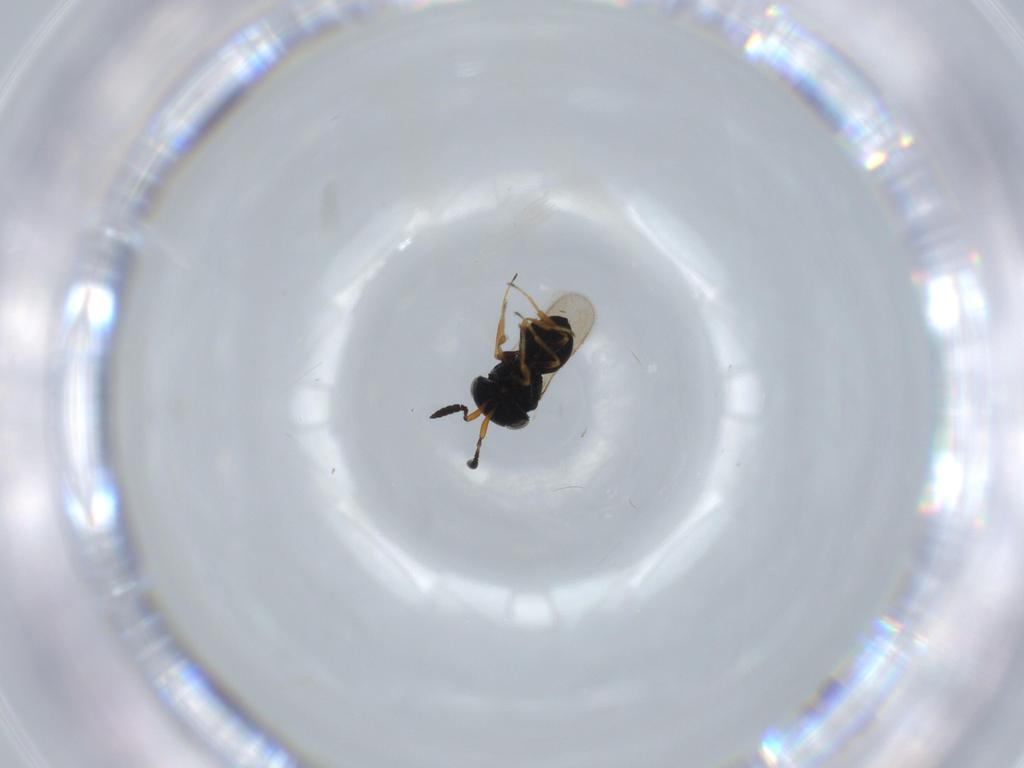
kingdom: Animalia
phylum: Arthropoda
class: Insecta
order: Hymenoptera
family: Scelionidae
